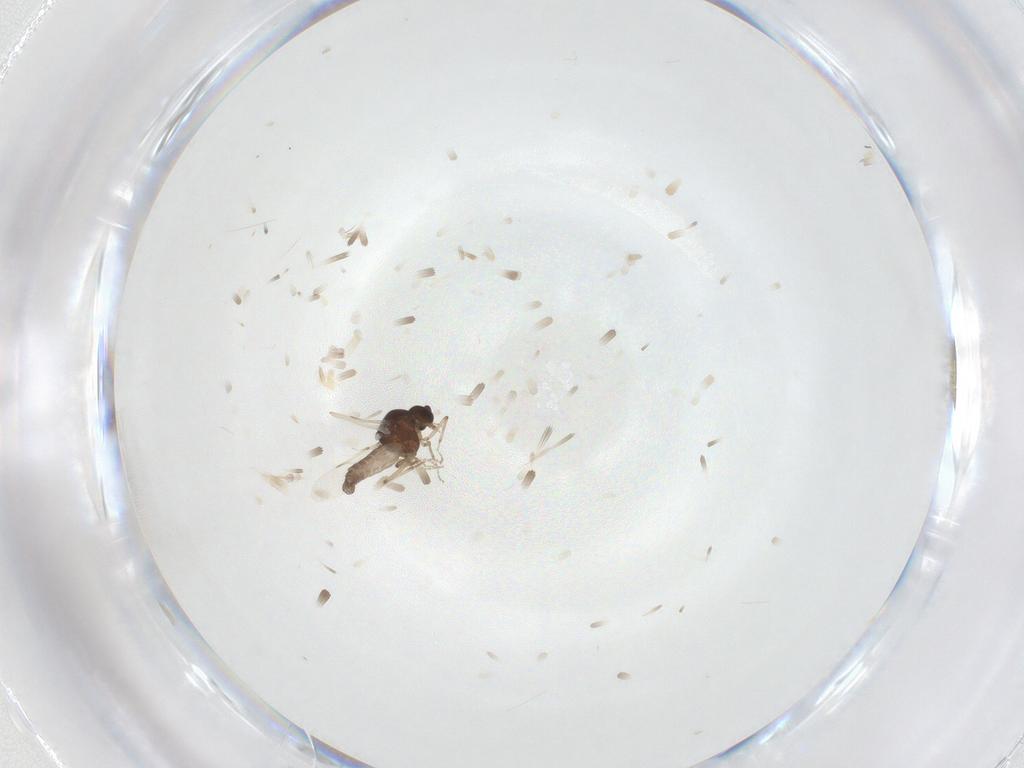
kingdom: Animalia
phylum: Arthropoda
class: Insecta
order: Diptera
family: Ceratopogonidae
